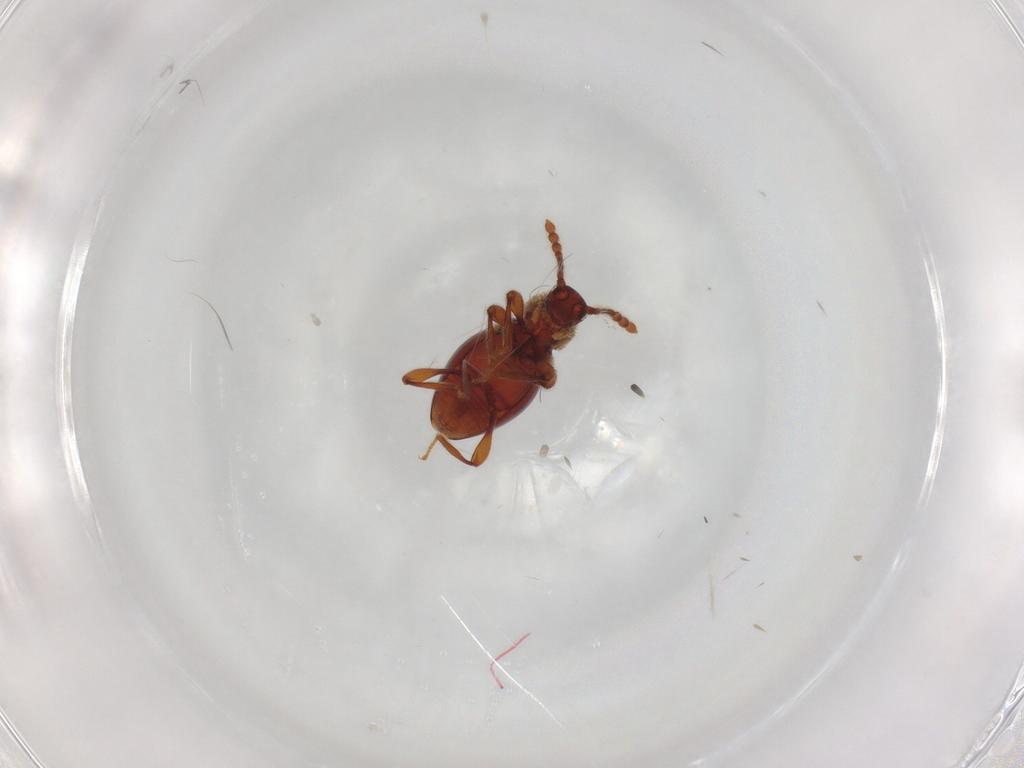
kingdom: Animalia
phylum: Arthropoda
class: Insecta
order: Coleoptera
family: Staphylinidae
